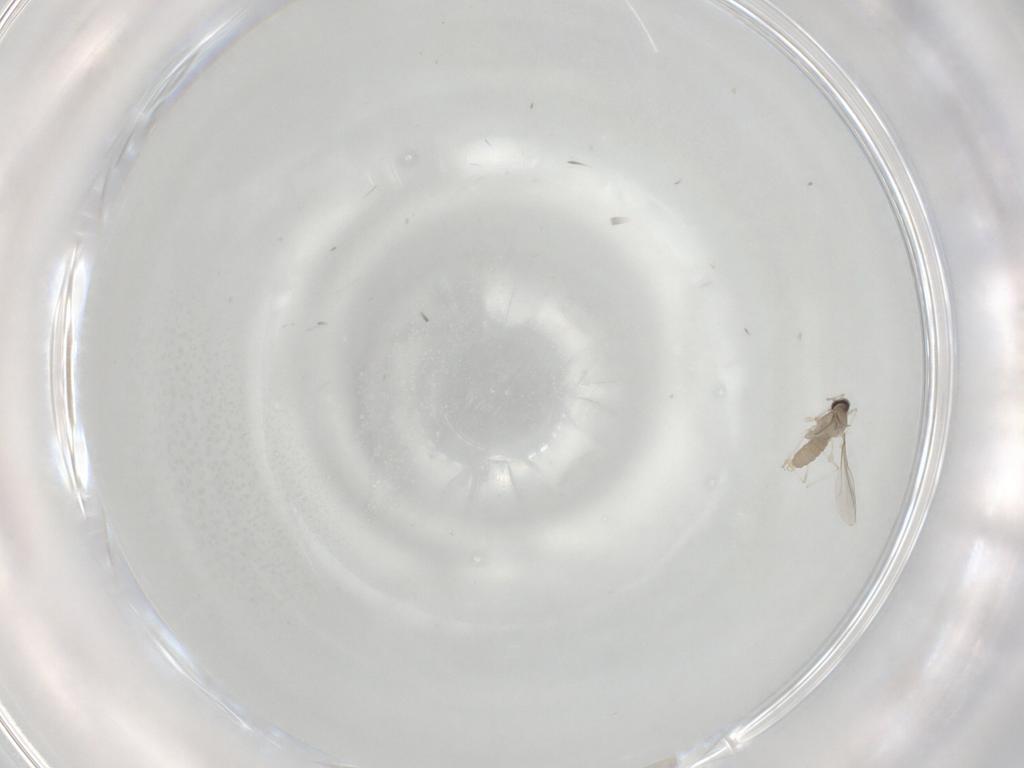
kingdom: Animalia
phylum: Arthropoda
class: Insecta
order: Diptera
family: Cecidomyiidae
